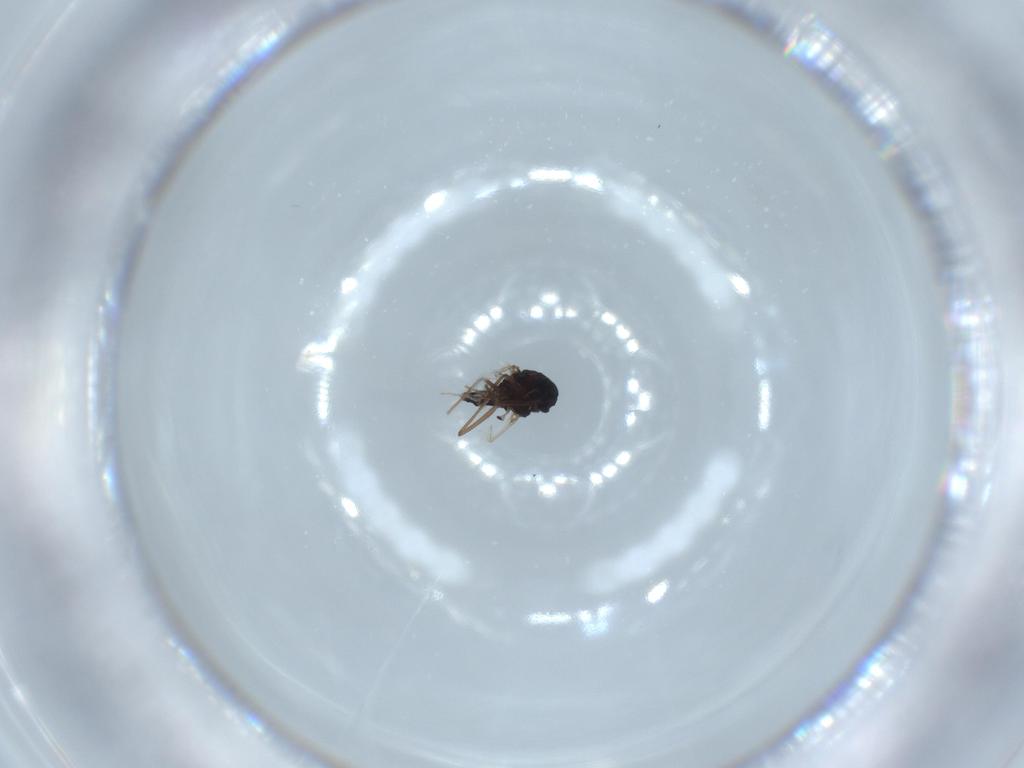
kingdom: Animalia
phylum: Arthropoda
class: Insecta
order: Diptera
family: Chironomidae
